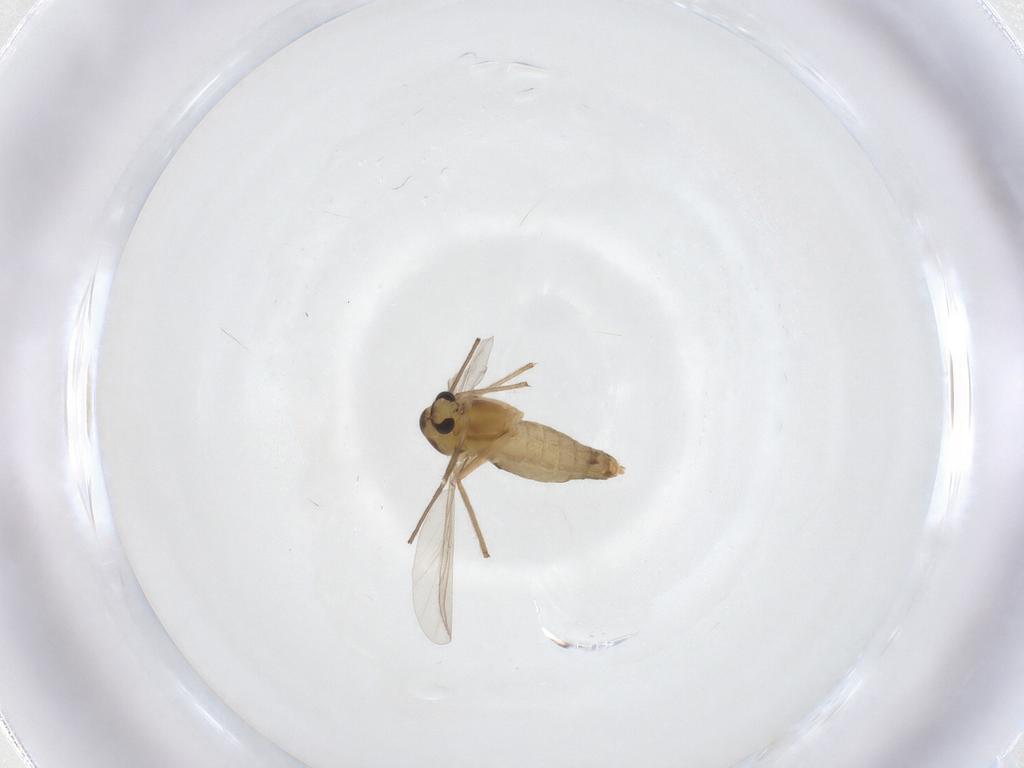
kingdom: Animalia
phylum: Arthropoda
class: Insecta
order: Diptera
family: Chironomidae
